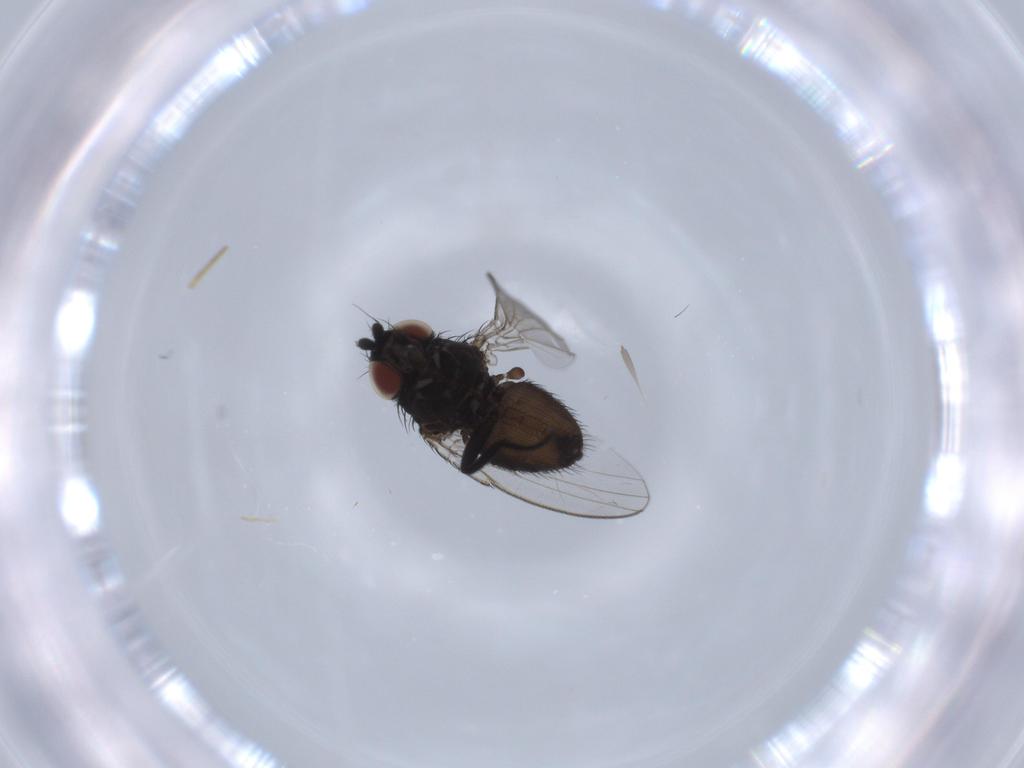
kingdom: Animalia
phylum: Arthropoda
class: Insecta
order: Diptera
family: Milichiidae
